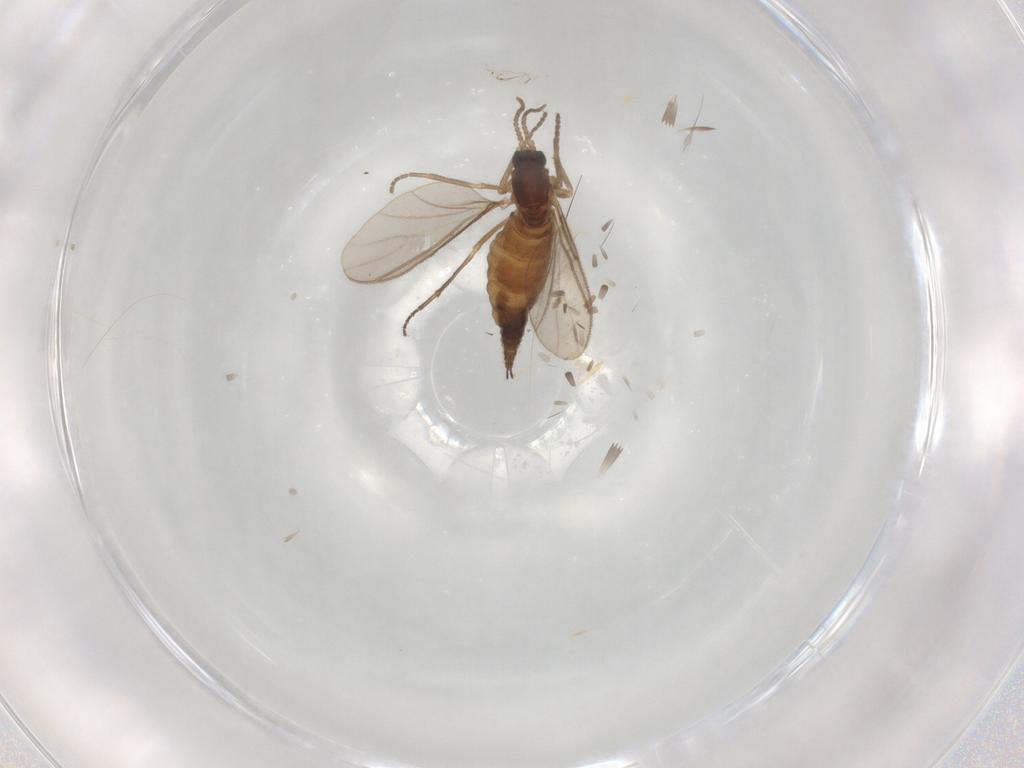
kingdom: Animalia
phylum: Arthropoda
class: Insecta
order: Diptera
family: Sciaridae
